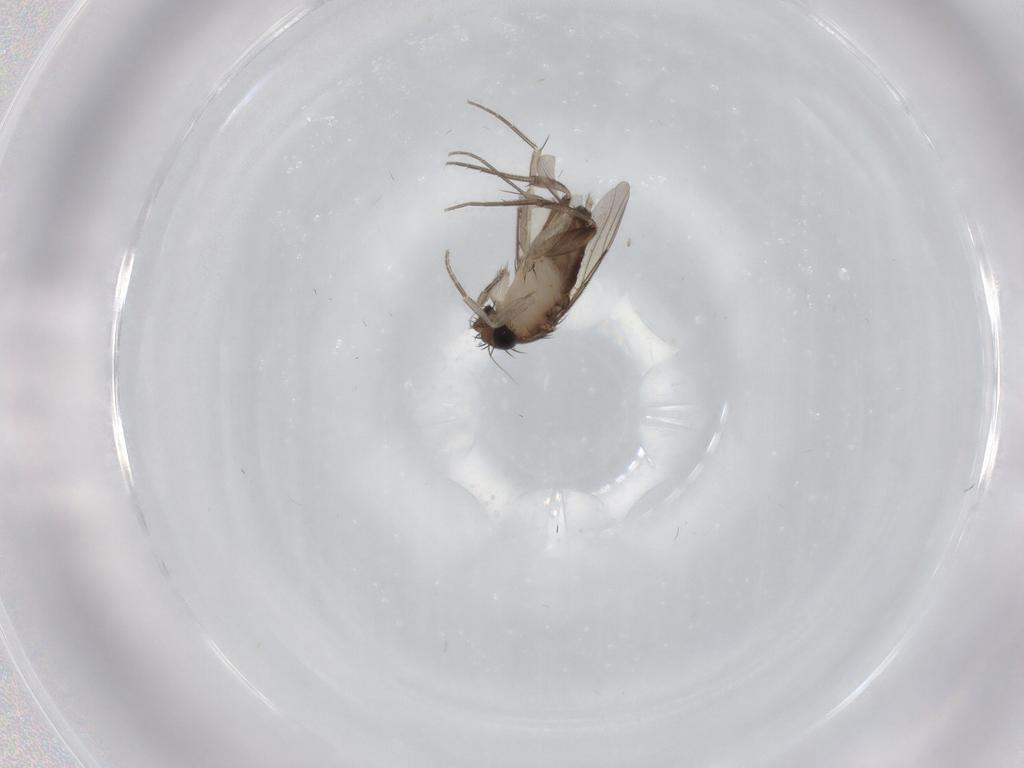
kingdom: Animalia
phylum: Arthropoda
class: Insecta
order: Diptera
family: Phoridae
